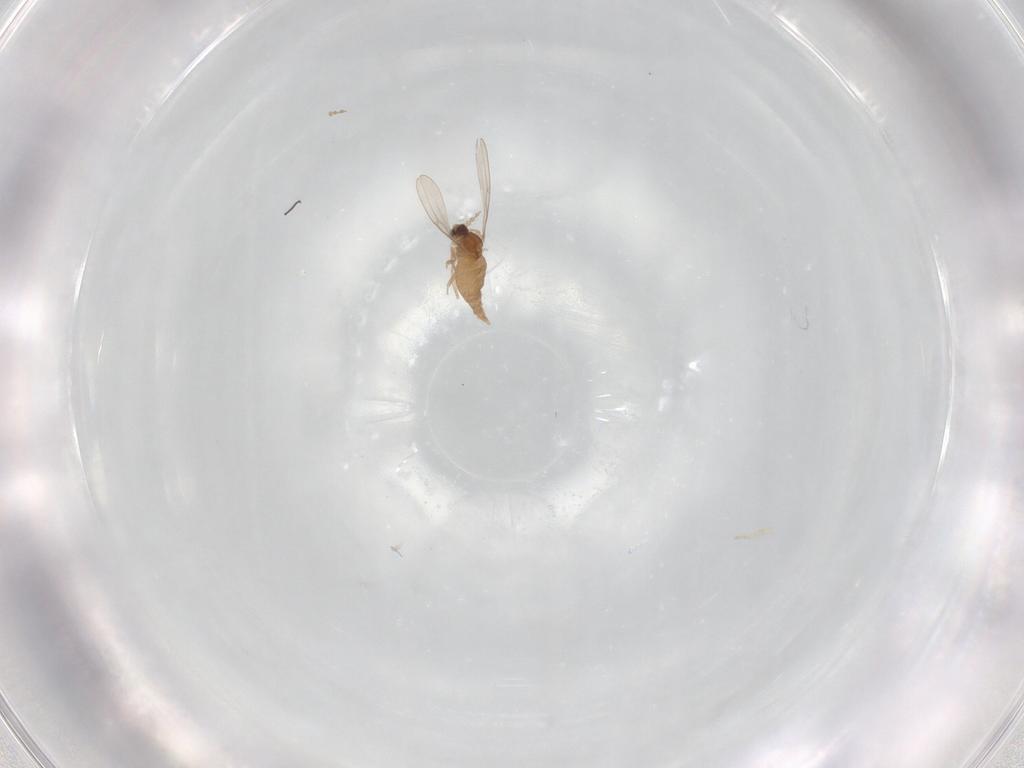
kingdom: Animalia
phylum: Arthropoda
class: Insecta
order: Diptera
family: Cecidomyiidae
